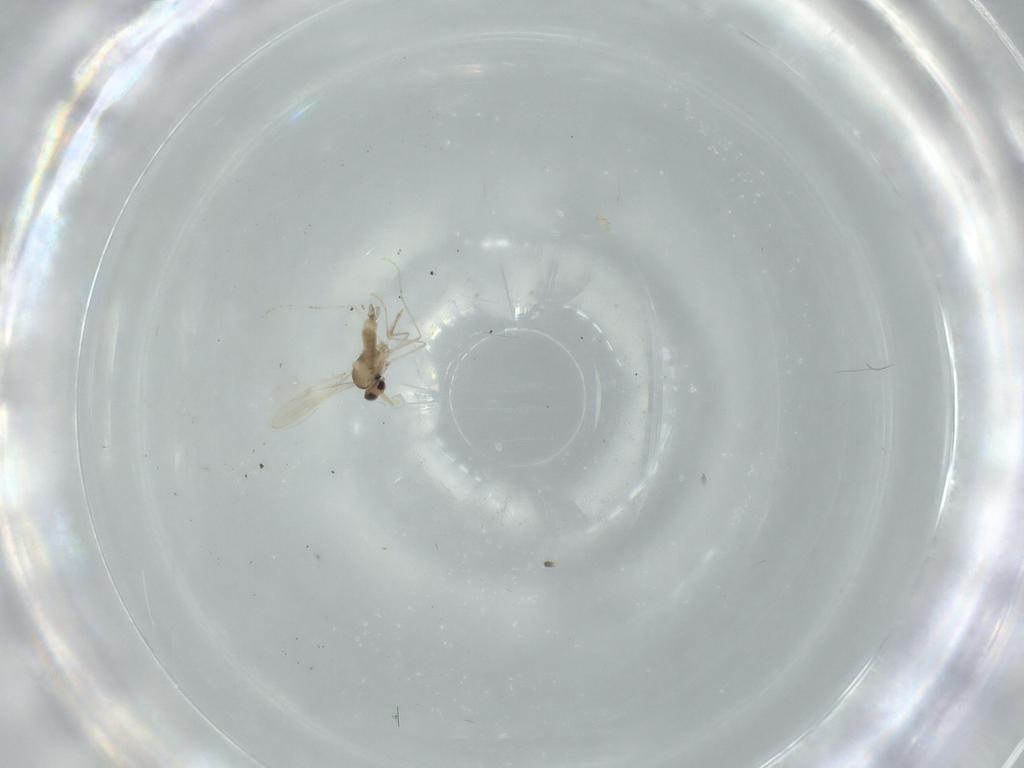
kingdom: Animalia
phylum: Arthropoda
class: Insecta
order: Diptera
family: Cecidomyiidae
